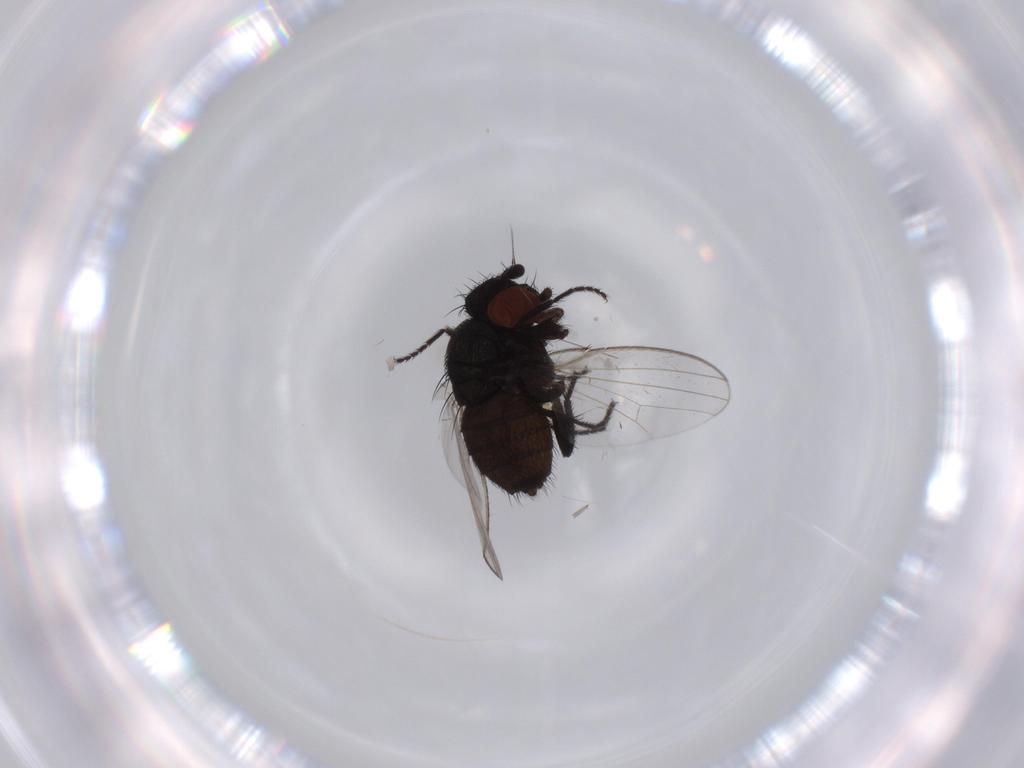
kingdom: Animalia
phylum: Arthropoda
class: Insecta
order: Diptera
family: Milichiidae
